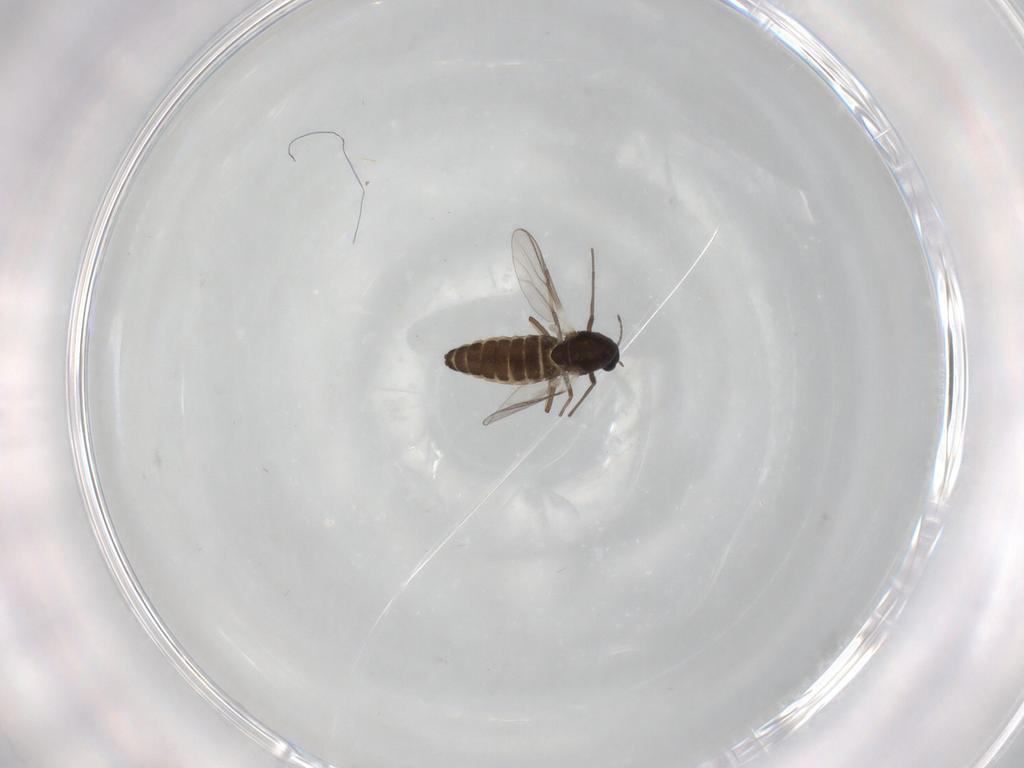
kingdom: Animalia
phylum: Arthropoda
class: Insecta
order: Diptera
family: Chironomidae
